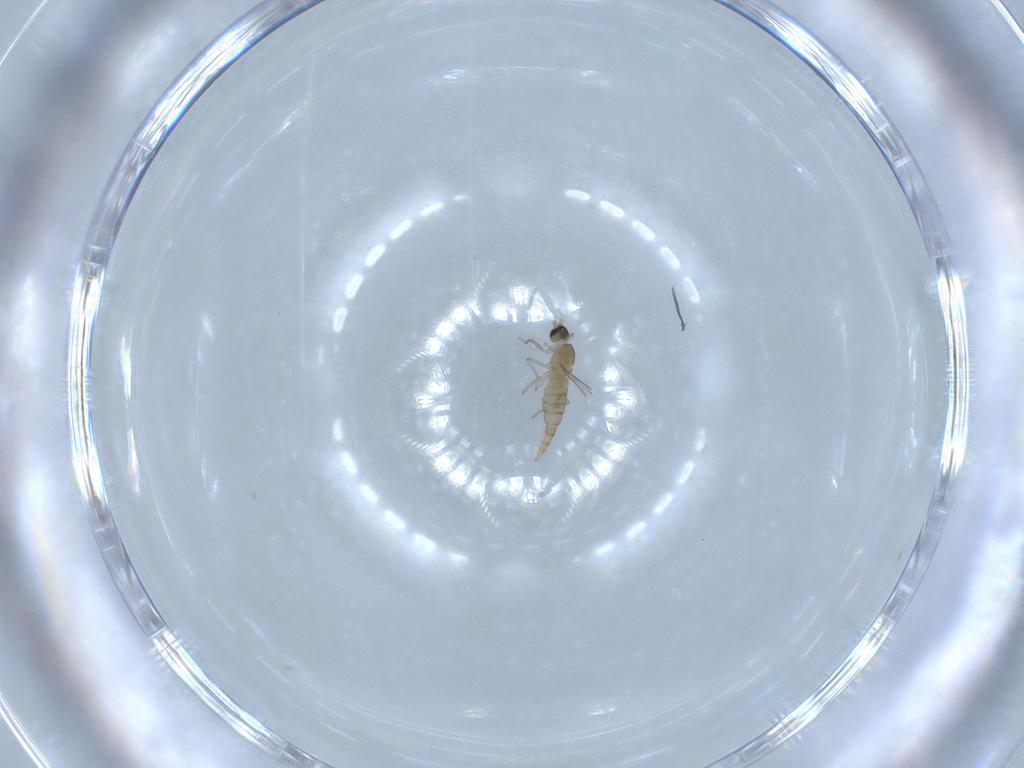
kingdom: Animalia
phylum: Arthropoda
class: Insecta
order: Diptera
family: Cecidomyiidae
